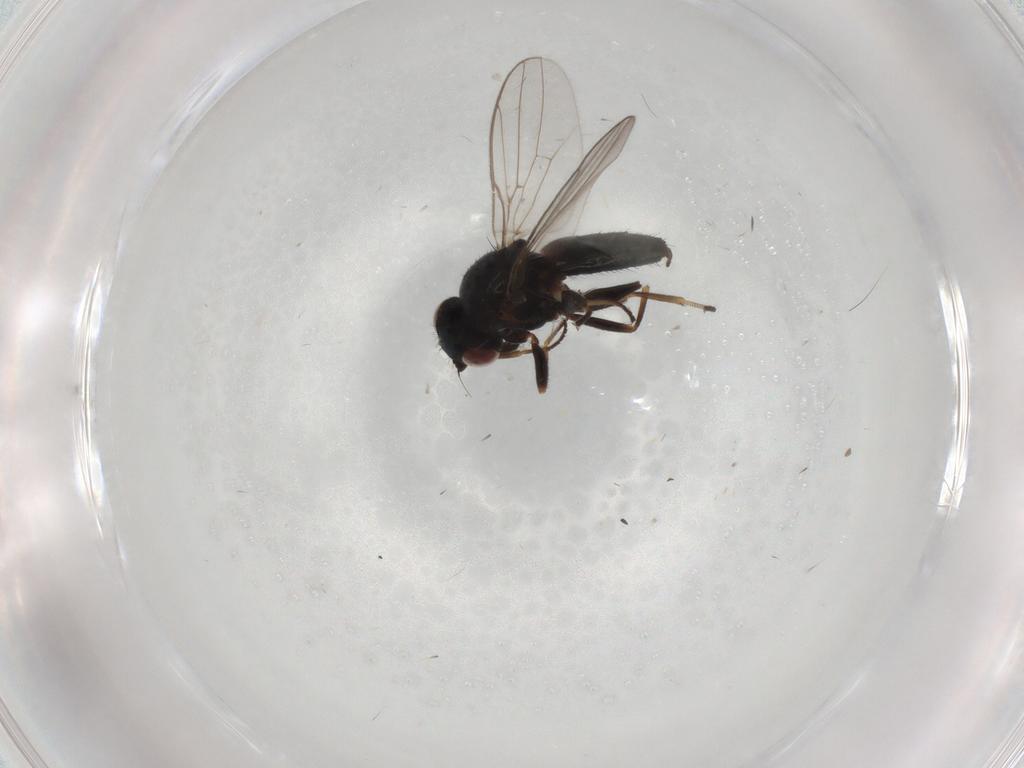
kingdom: Animalia
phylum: Arthropoda
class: Insecta
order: Diptera
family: Chloropidae
